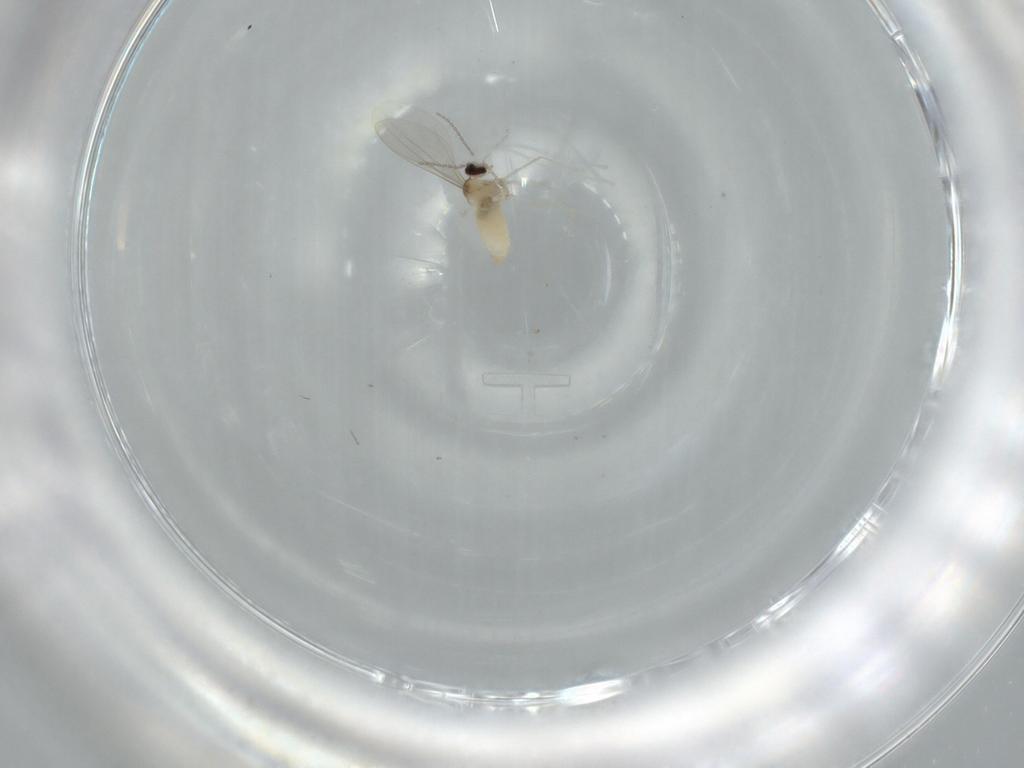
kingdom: Animalia
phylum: Arthropoda
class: Insecta
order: Diptera
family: Cecidomyiidae
